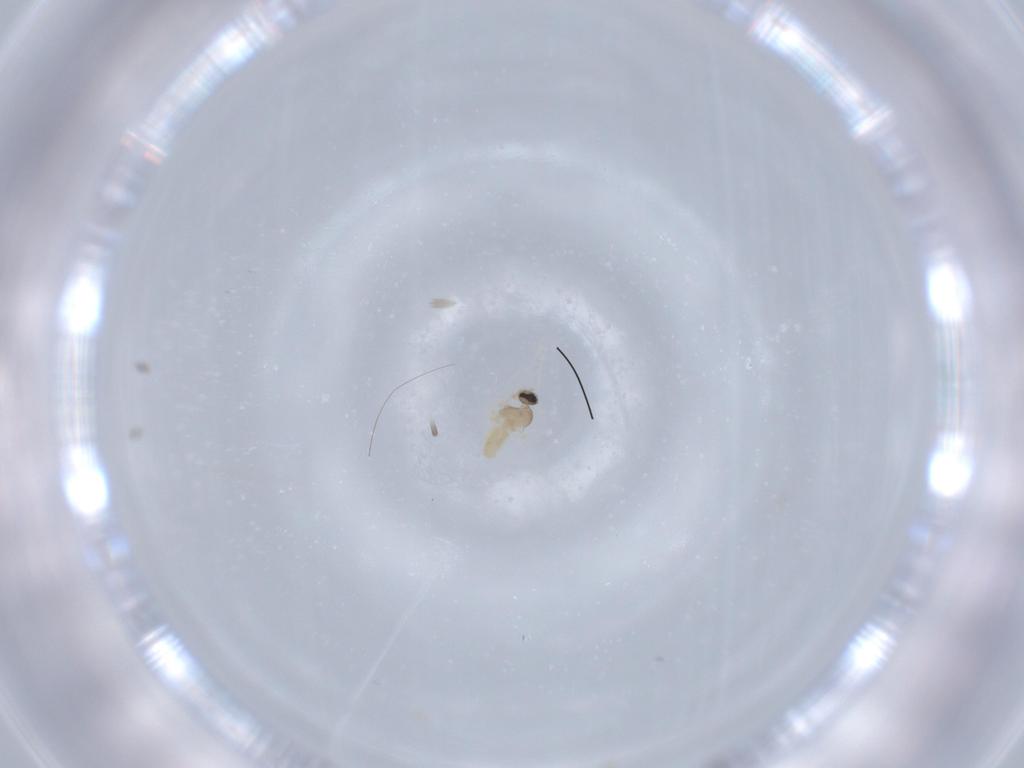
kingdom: Animalia
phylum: Arthropoda
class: Insecta
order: Diptera
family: Cecidomyiidae
